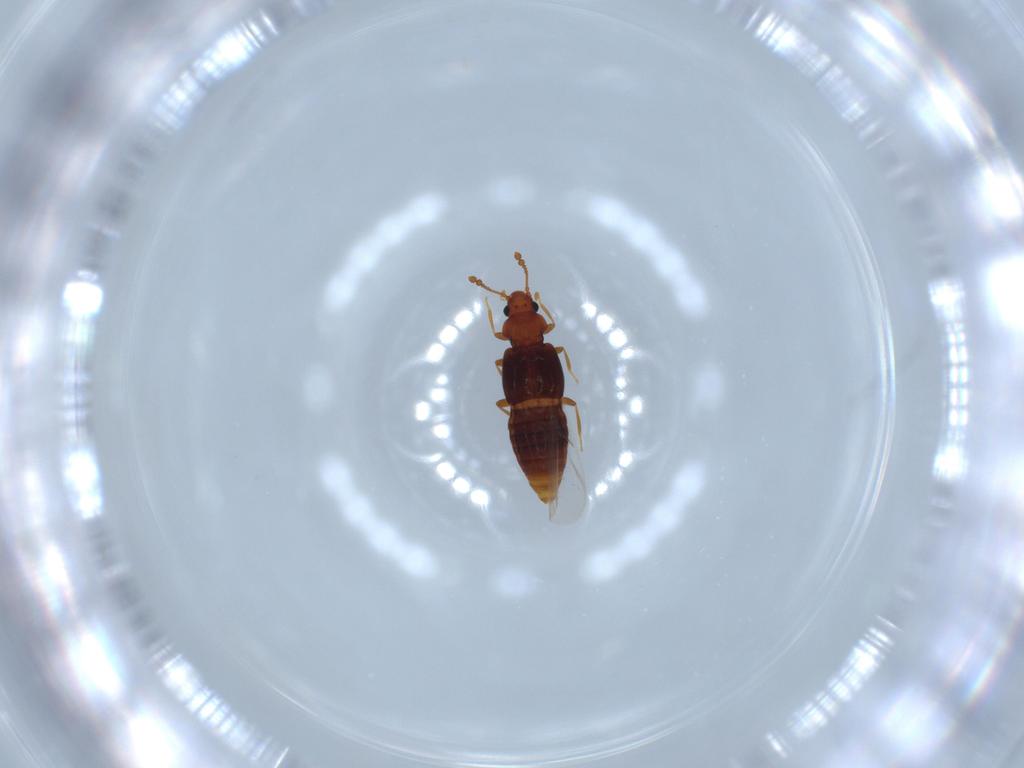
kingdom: Animalia
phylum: Arthropoda
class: Insecta
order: Coleoptera
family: Staphylinidae
